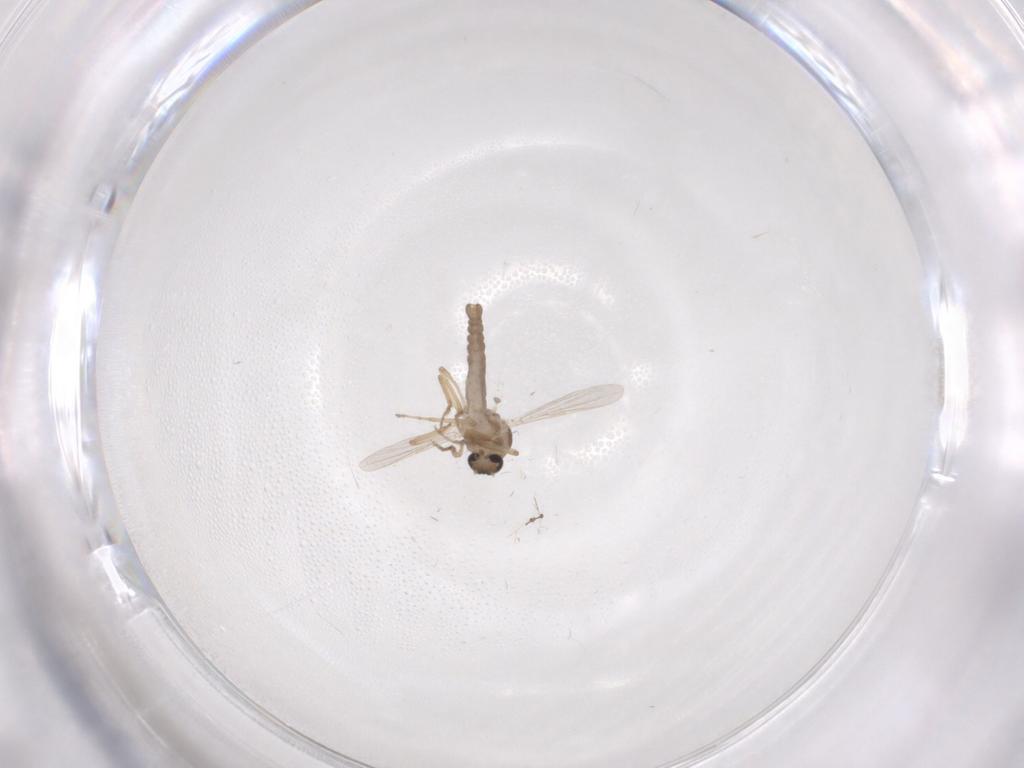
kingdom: Animalia
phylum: Arthropoda
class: Insecta
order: Diptera
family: Ceratopogonidae
